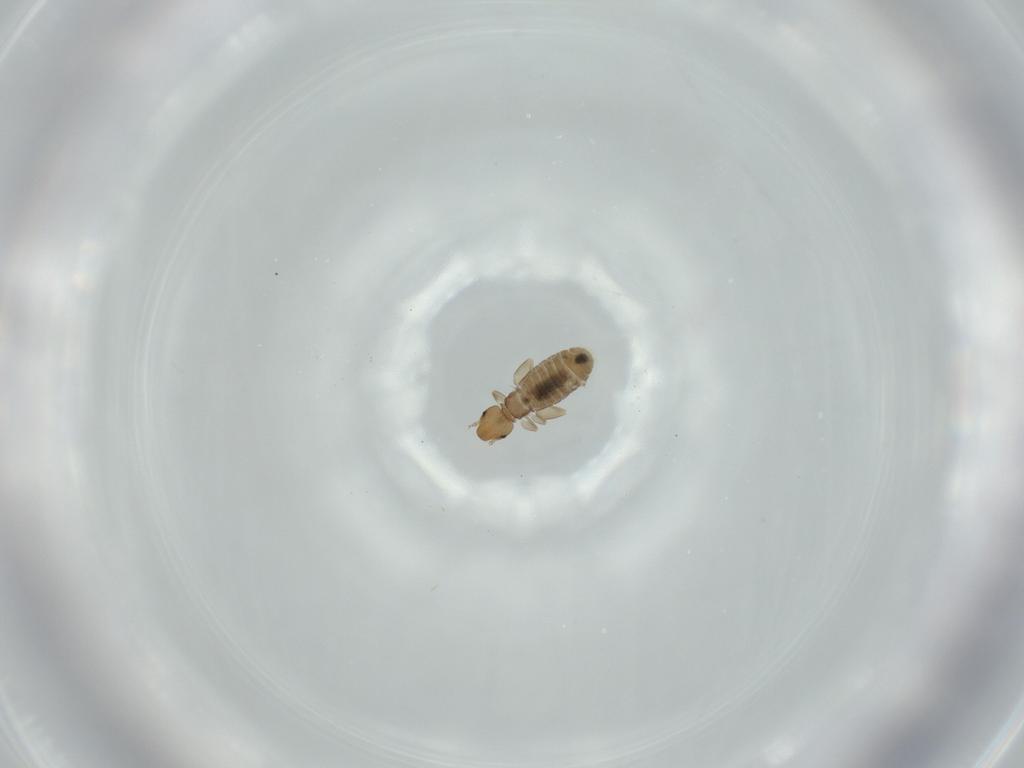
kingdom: Animalia
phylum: Arthropoda
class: Insecta
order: Psocodea
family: Liposcelididae
